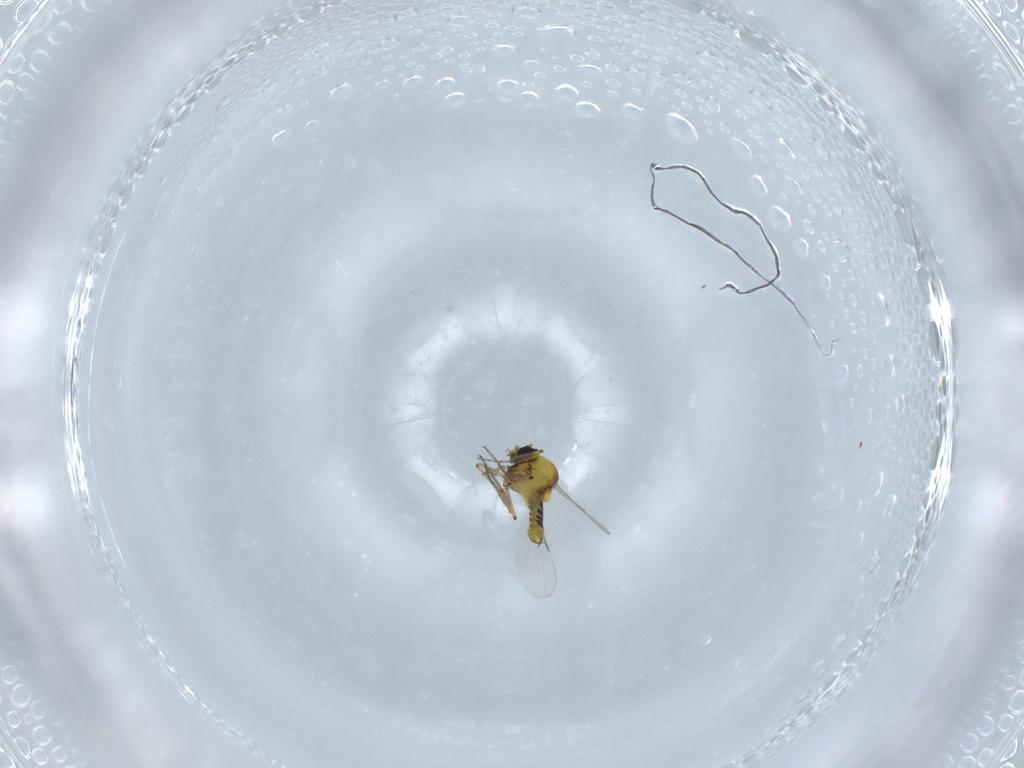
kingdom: Animalia
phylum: Arthropoda
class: Insecta
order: Diptera
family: Ceratopogonidae
